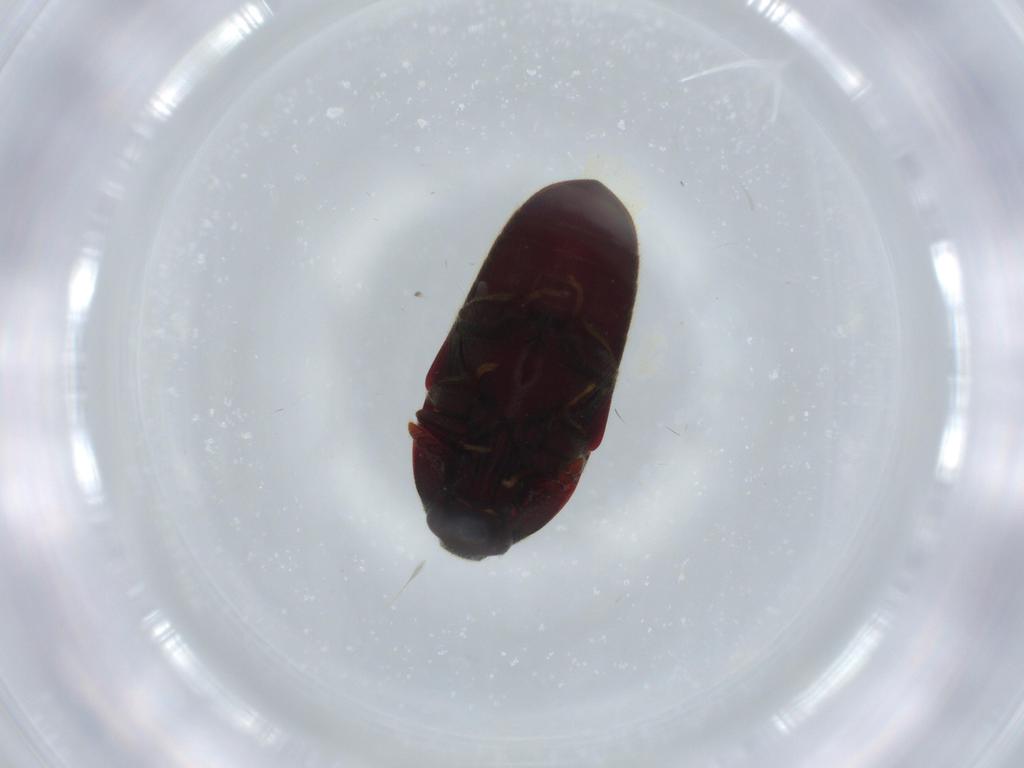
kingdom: Animalia
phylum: Arthropoda
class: Insecta
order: Coleoptera
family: Throscidae
